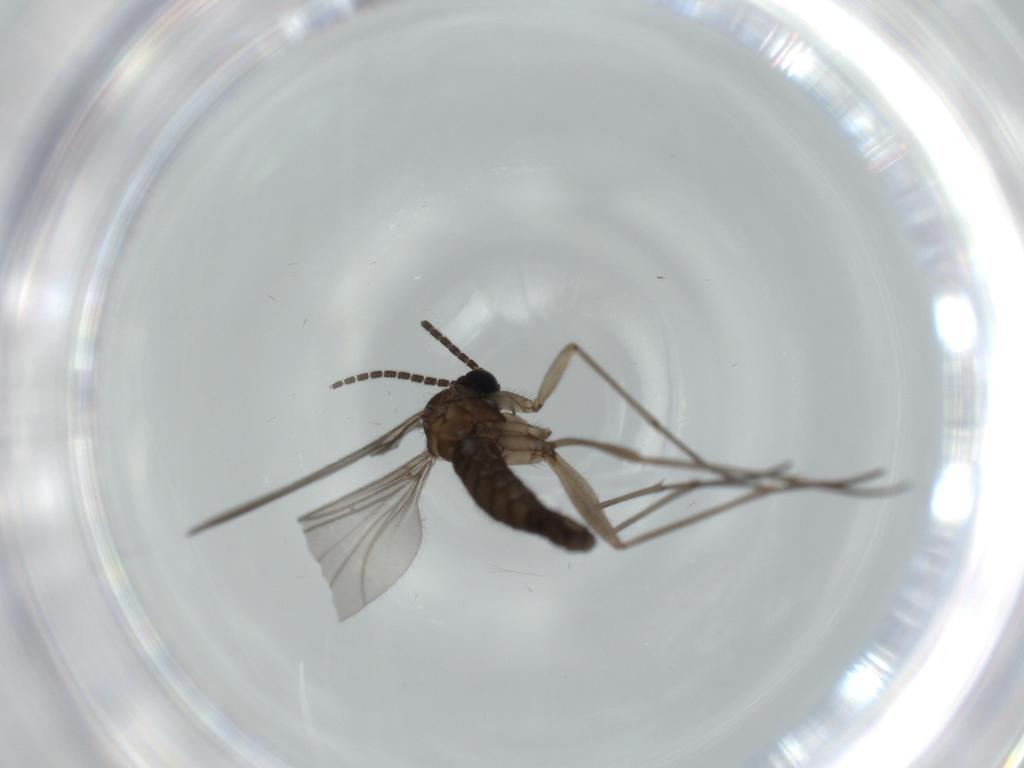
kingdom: Animalia
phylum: Arthropoda
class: Insecta
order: Diptera
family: Sciaridae
